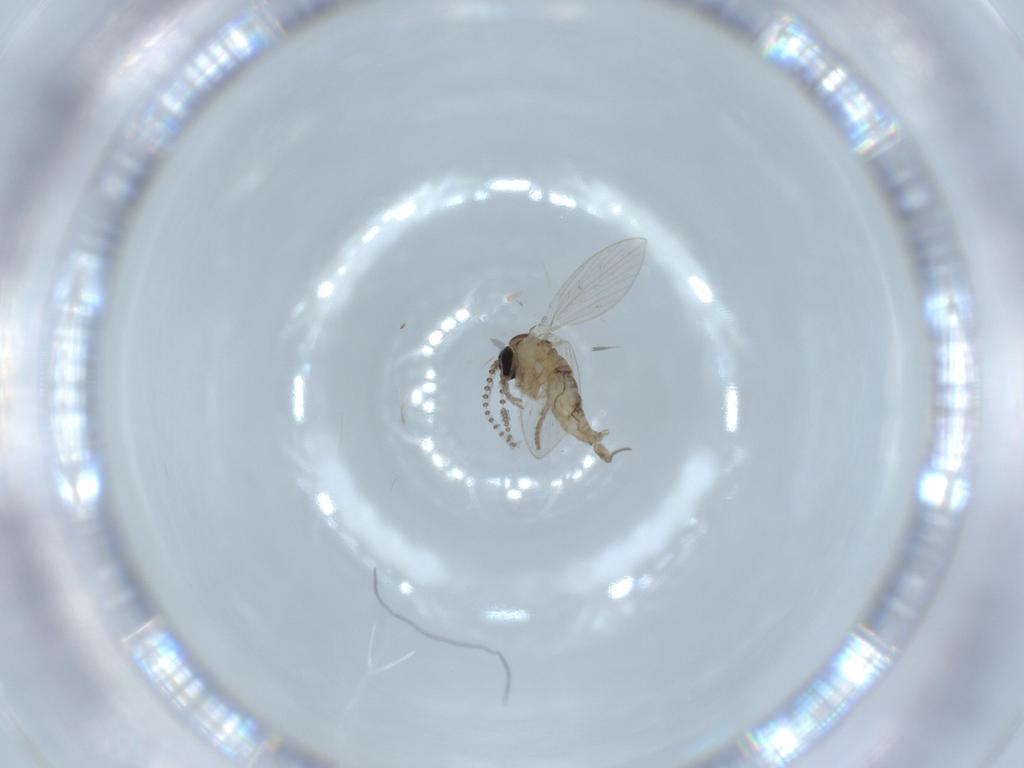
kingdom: Animalia
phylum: Arthropoda
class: Insecta
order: Diptera
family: Psychodidae
